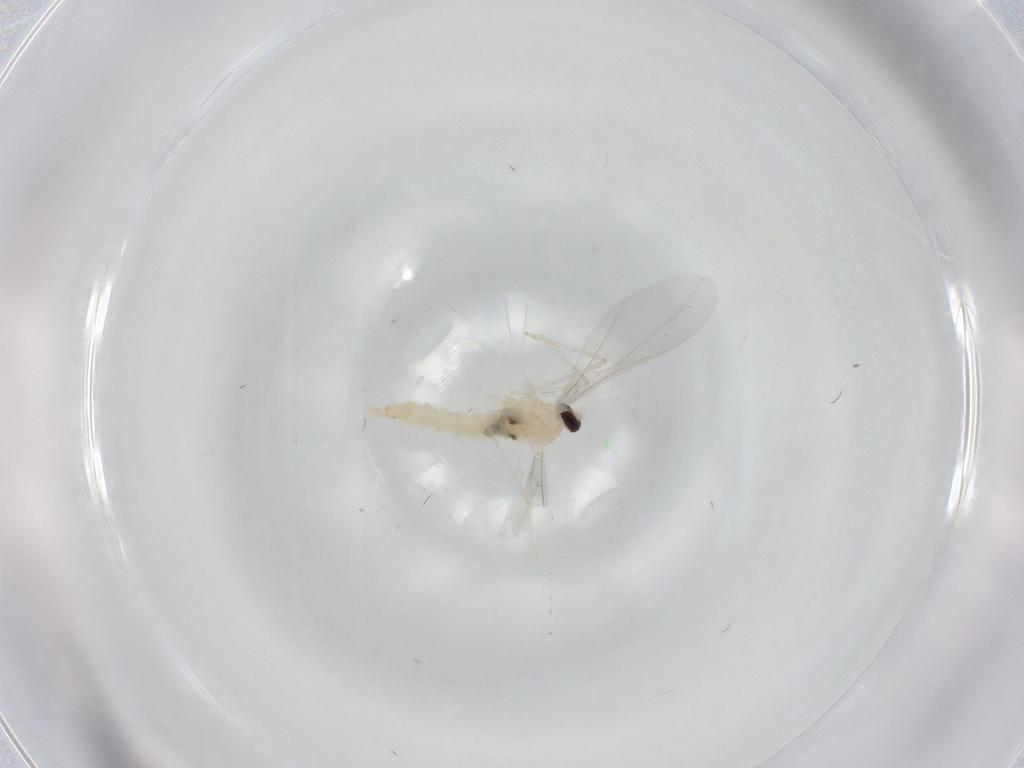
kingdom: Animalia
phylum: Arthropoda
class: Insecta
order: Diptera
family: Cecidomyiidae
